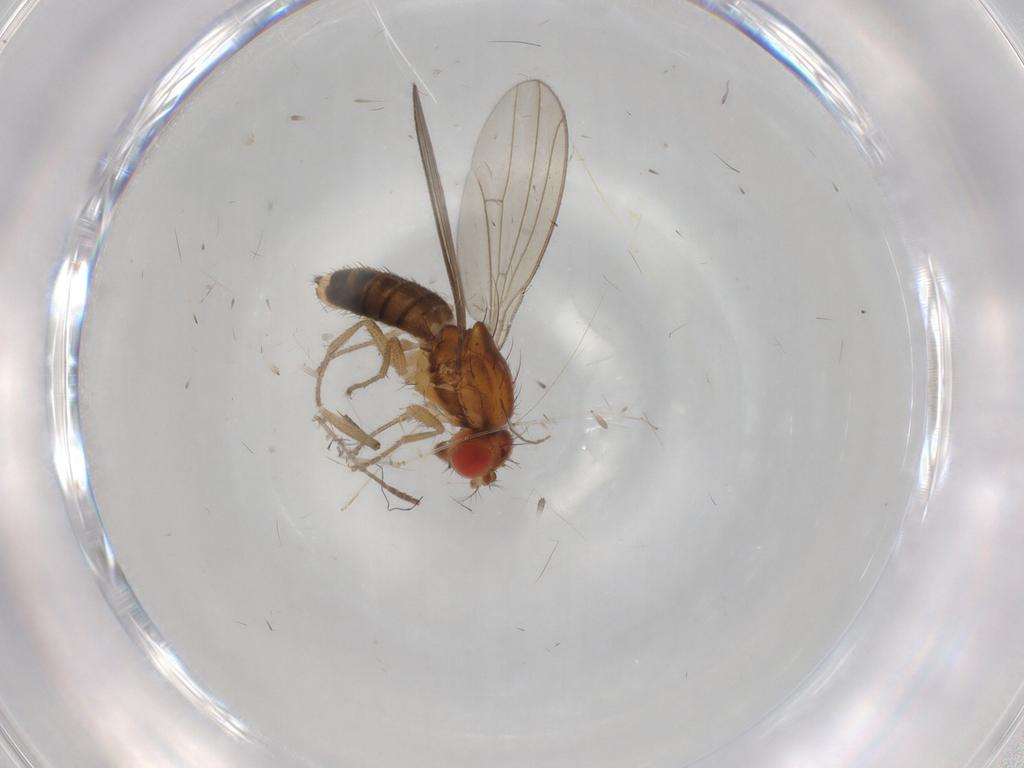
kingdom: Animalia
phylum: Arthropoda
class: Insecta
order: Diptera
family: Drosophilidae
